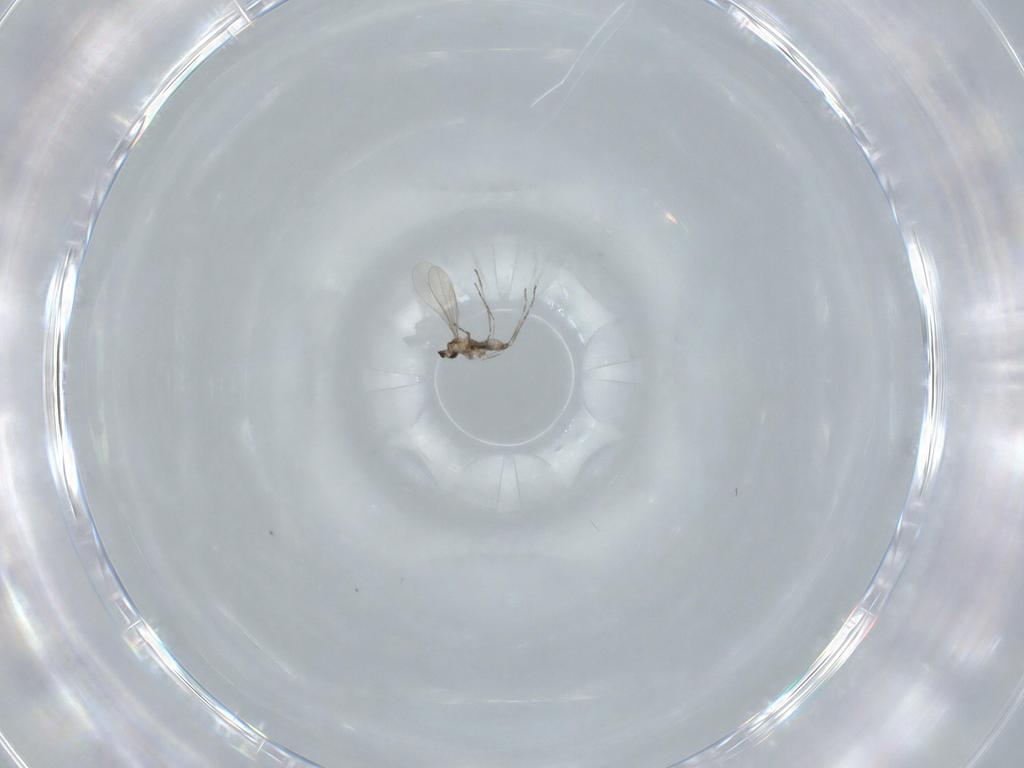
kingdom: Animalia
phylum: Arthropoda
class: Insecta
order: Diptera
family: Cecidomyiidae
